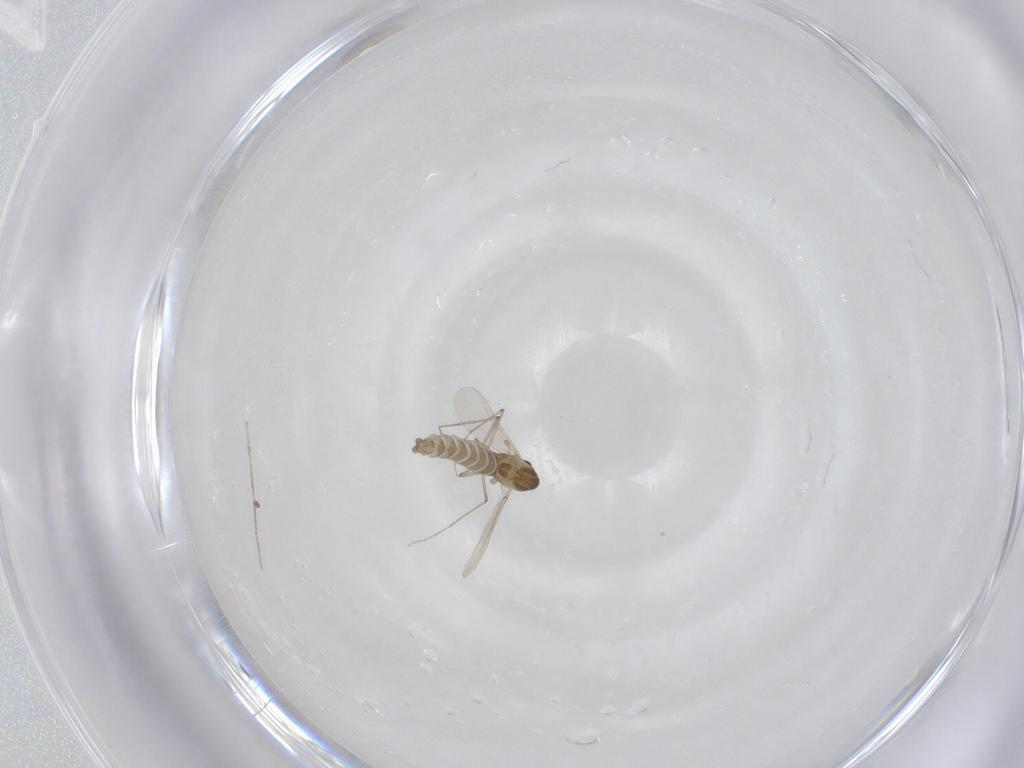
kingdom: Animalia
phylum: Arthropoda
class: Insecta
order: Diptera
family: Chironomidae
